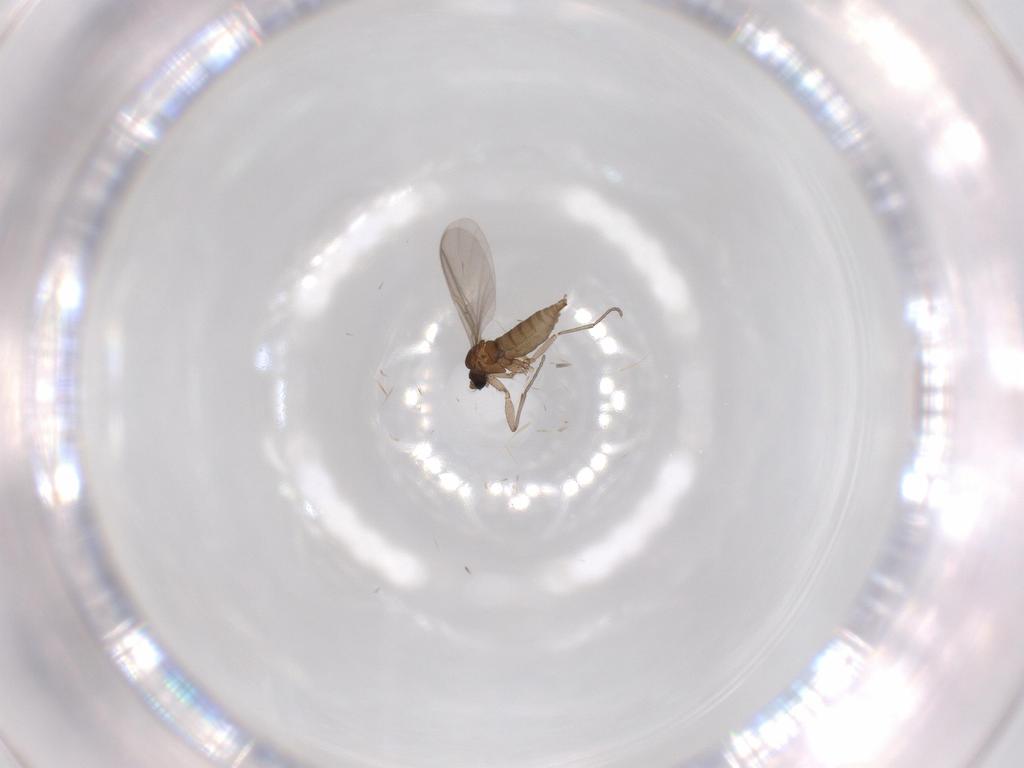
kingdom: Animalia
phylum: Arthropoda
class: Insecta
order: Diptera
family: Sciaridae
